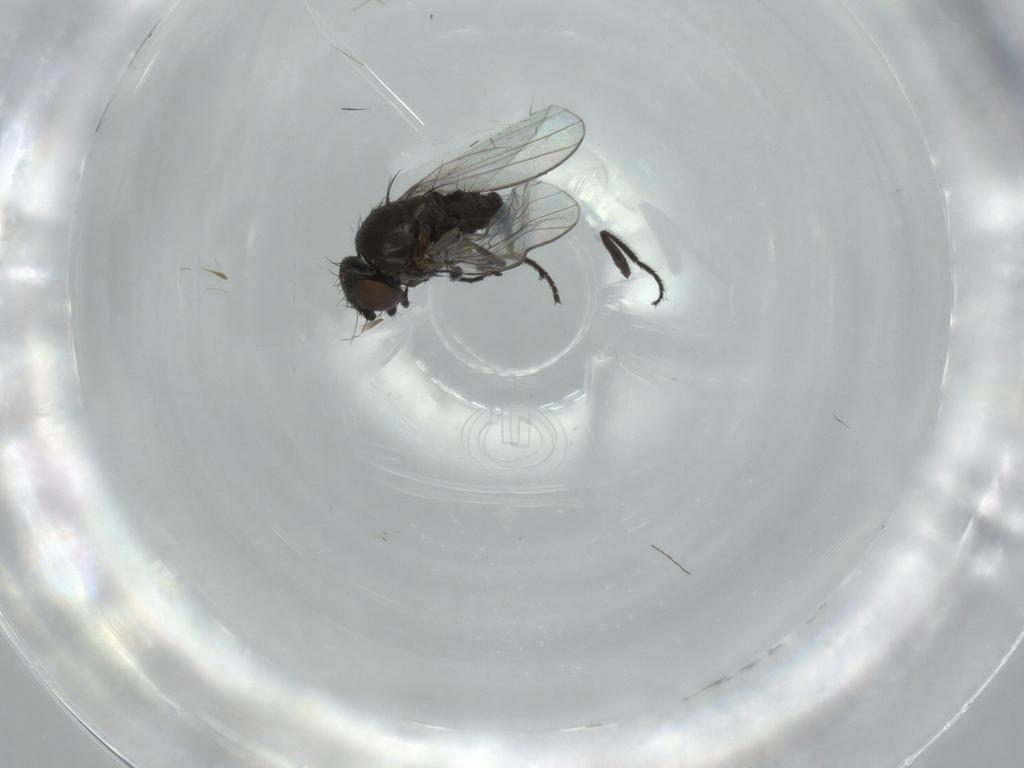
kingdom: Animalia
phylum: Arthropoda
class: Insecta
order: Diptera
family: Milichiidae
